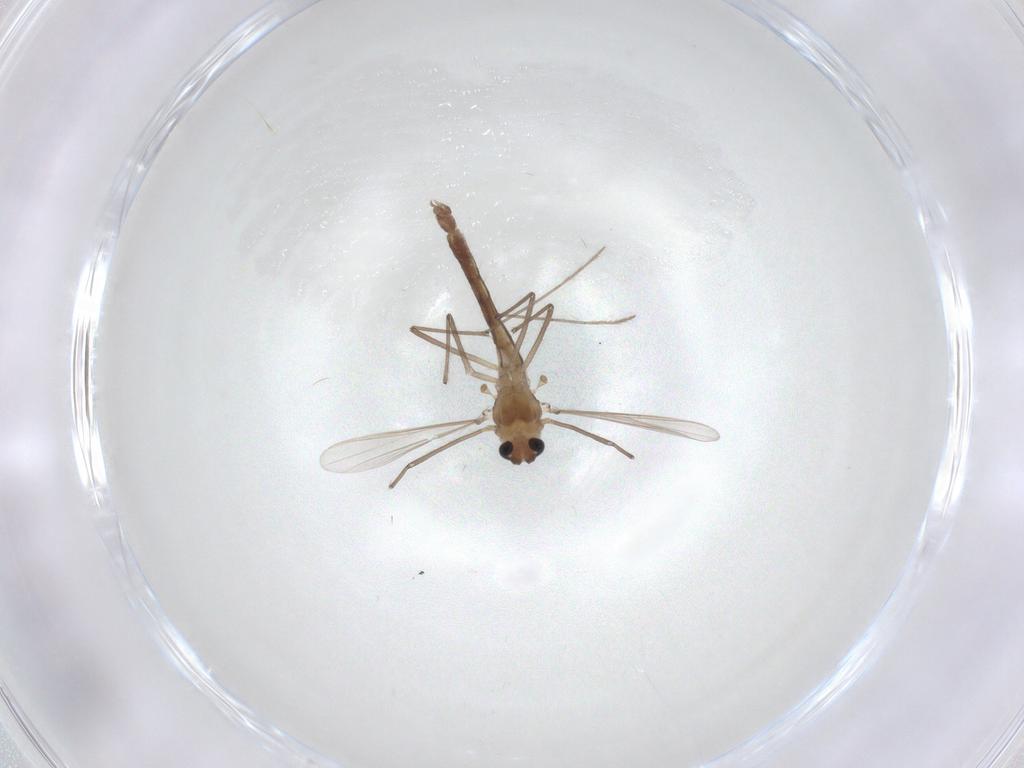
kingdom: Animalia
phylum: Arthropoda
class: Insecta
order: Diptera
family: Chironomidae
